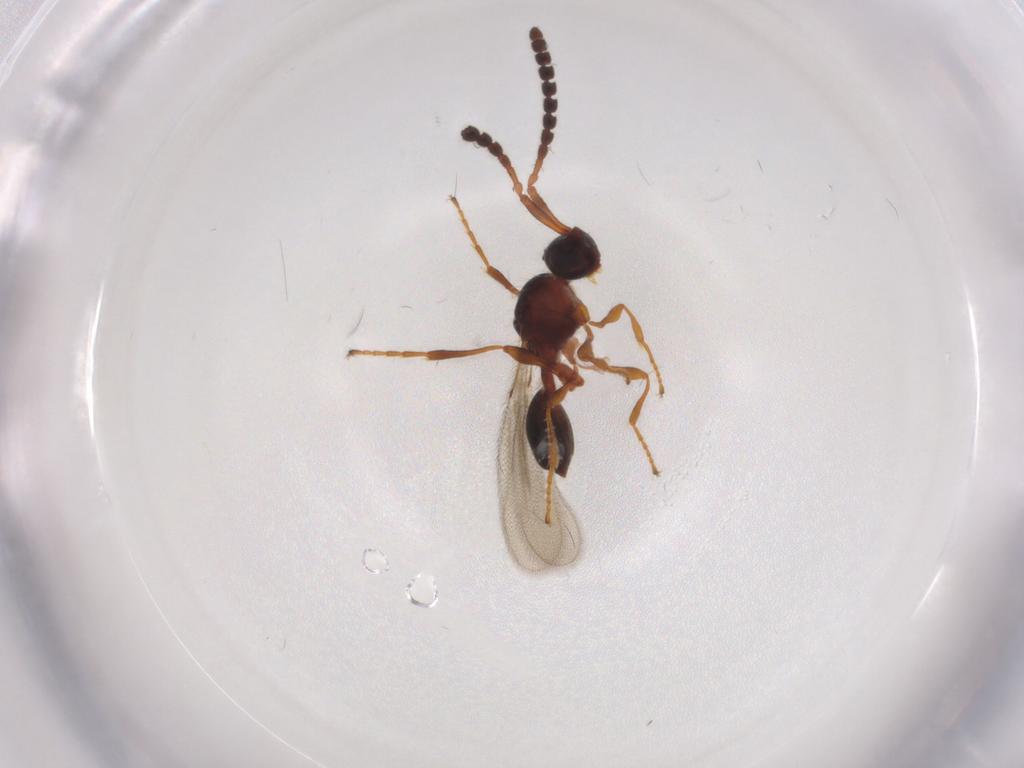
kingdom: Animalia
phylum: Arthropoda
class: Insecta
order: Hymenoptera
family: Diapriidae
